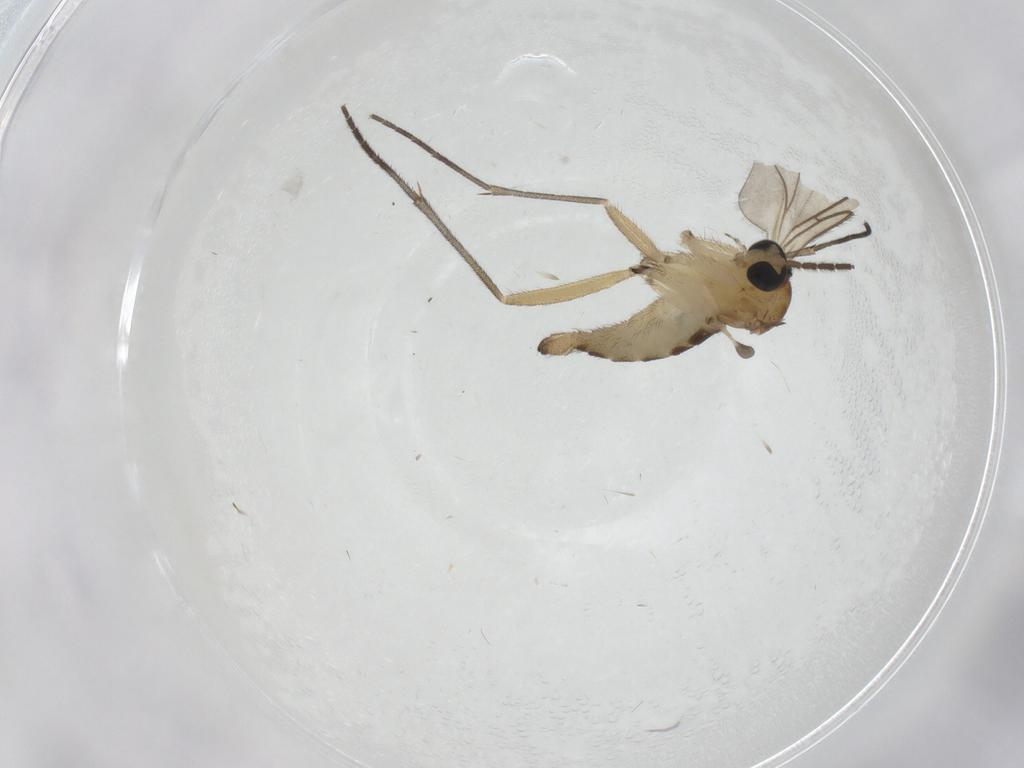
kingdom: Animalia
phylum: Arthropoda
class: Insecta
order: Diptera
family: Sciaridae
